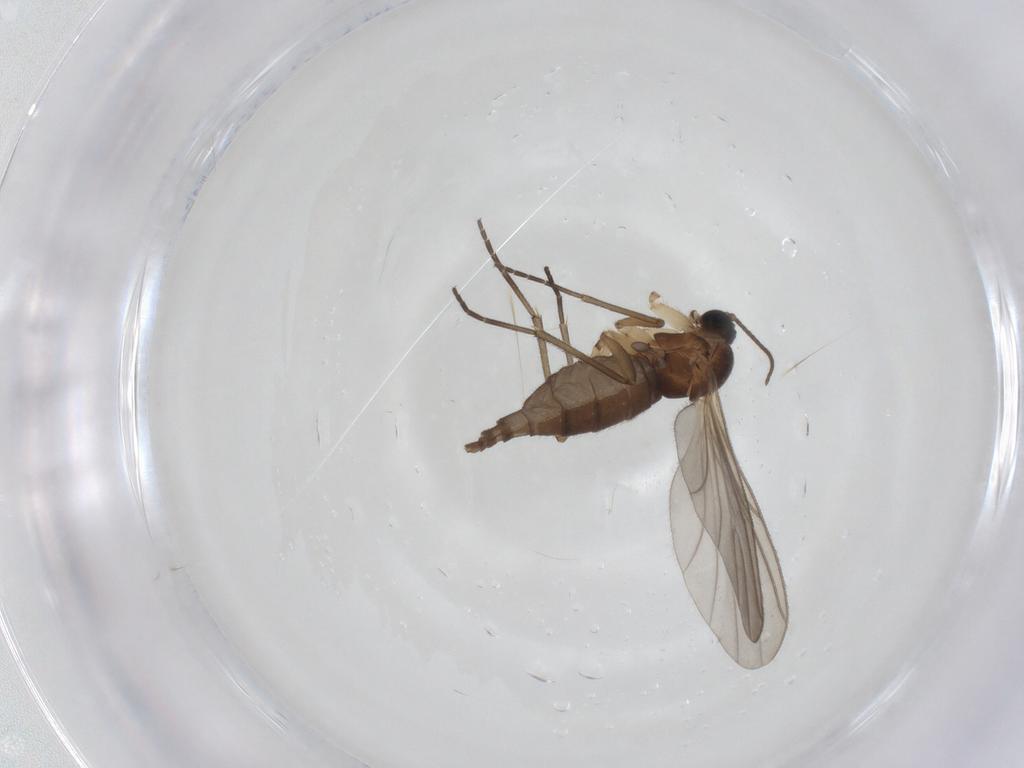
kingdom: Animalia
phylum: Arthropoda
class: Insecta
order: Diptera
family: Sciaridae
